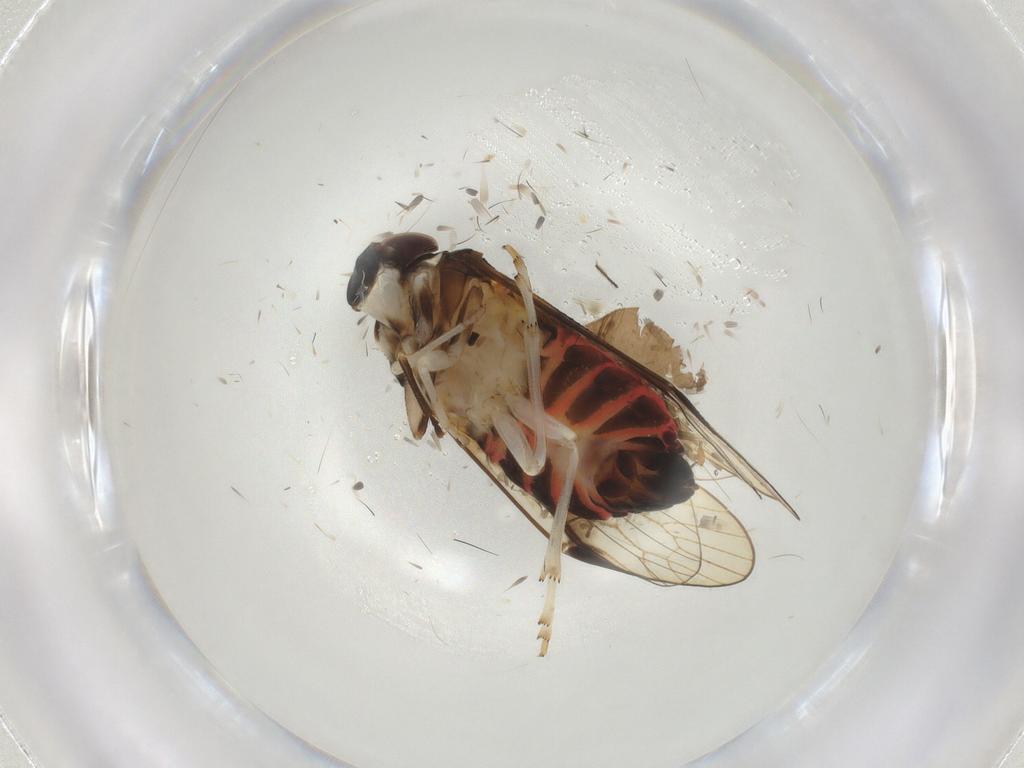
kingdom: Animalia
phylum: Arthropoda
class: Insecta
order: Hemiptera
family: Cixiidae
